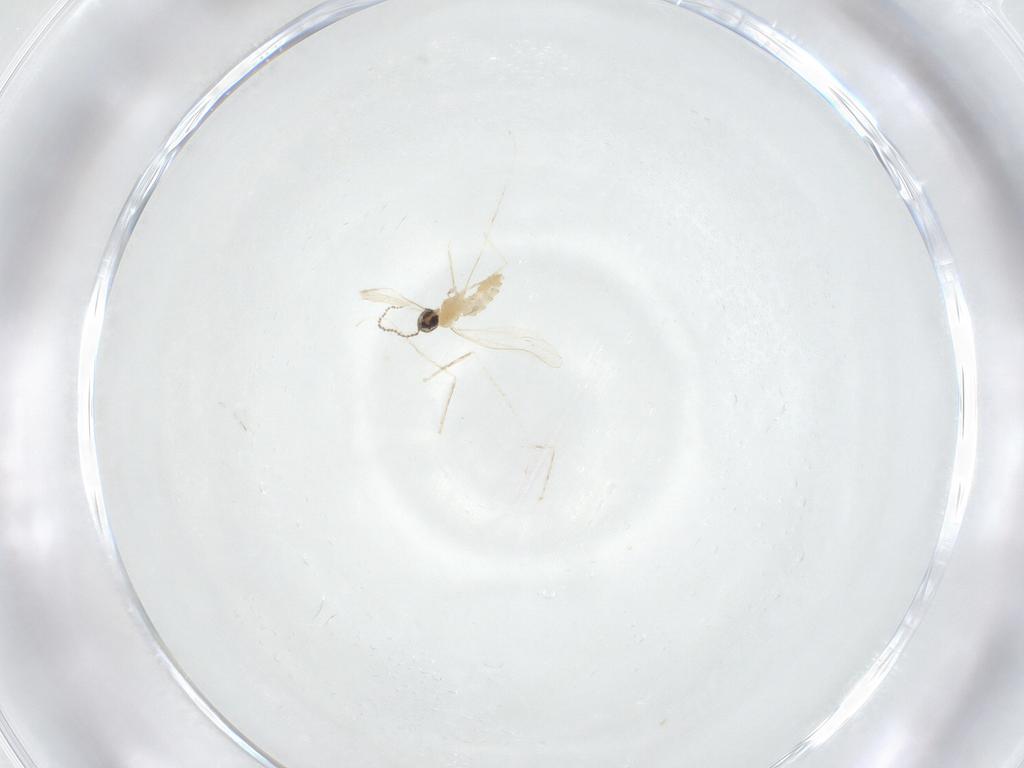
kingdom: Animalia
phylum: Arthropoda
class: Insecta
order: Diptera
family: Cecidomyiidae
